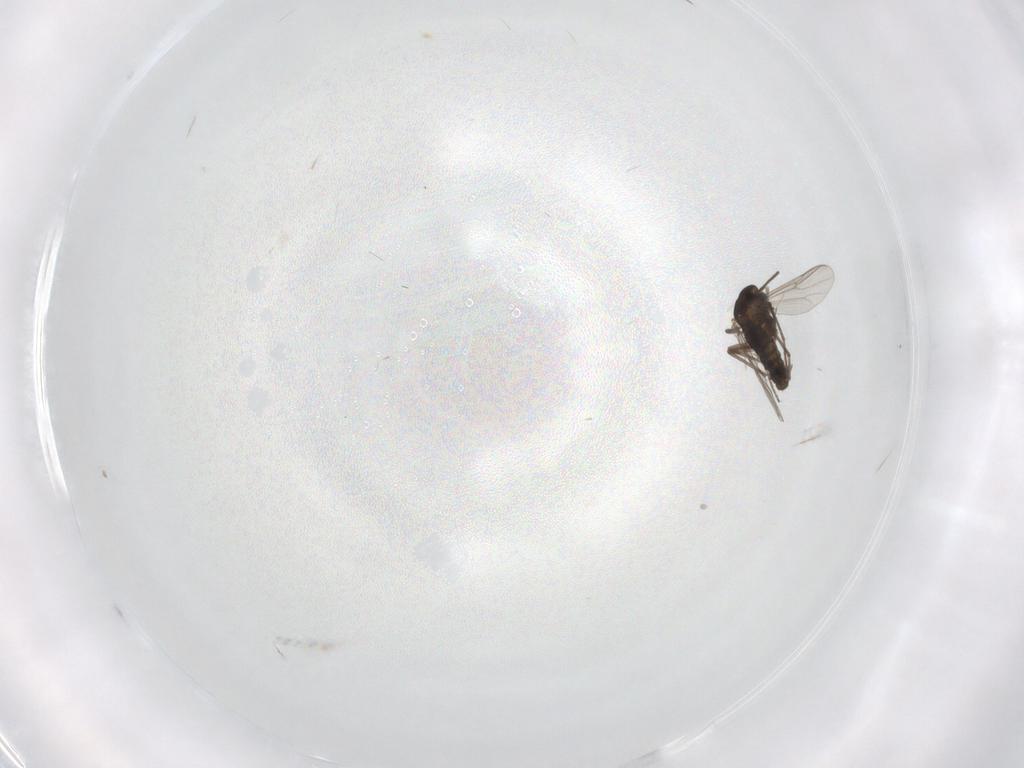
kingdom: Animalia
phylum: Arthropoda
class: Insecta
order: Diptera
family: Chironomidae
